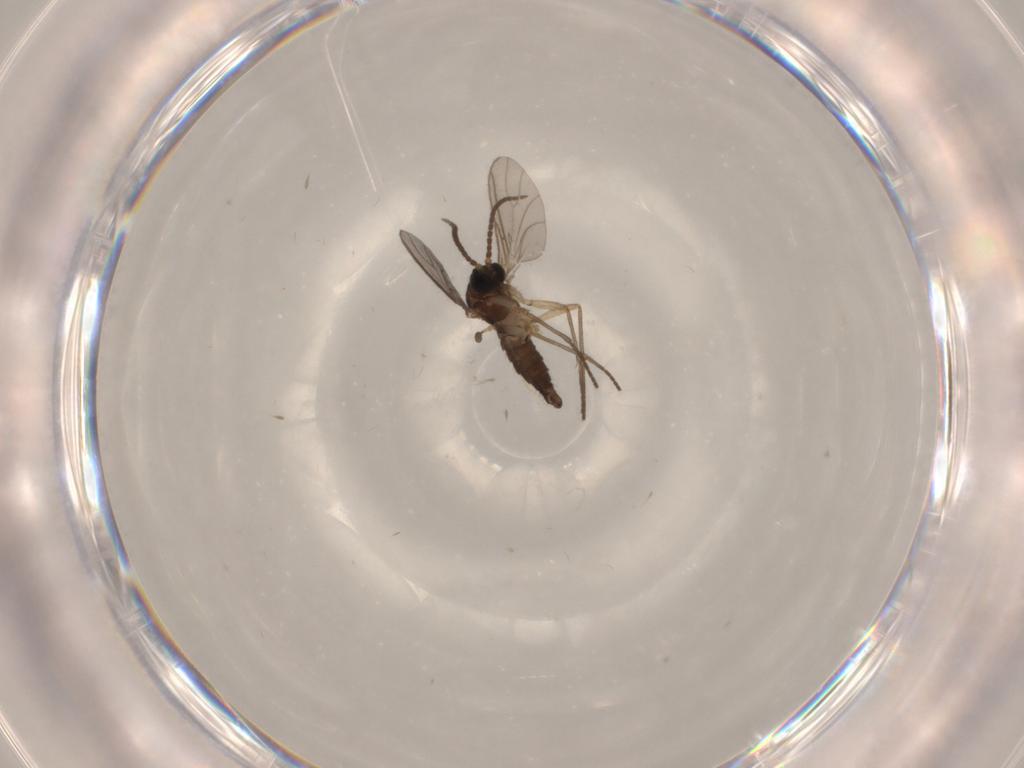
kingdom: Animalia
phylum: Arthropoda
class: Insecta
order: Diptera
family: Sciaridae
